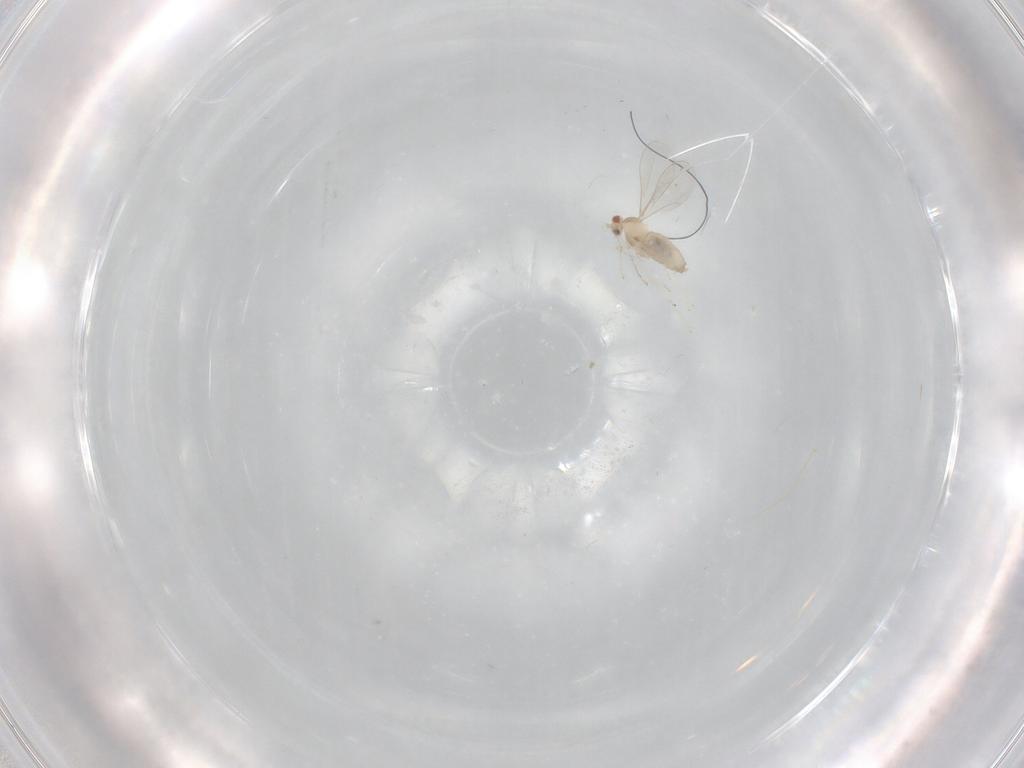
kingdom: Animalia
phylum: Arthropoda
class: Insecta
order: Diptera
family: Cecidomyiidae
